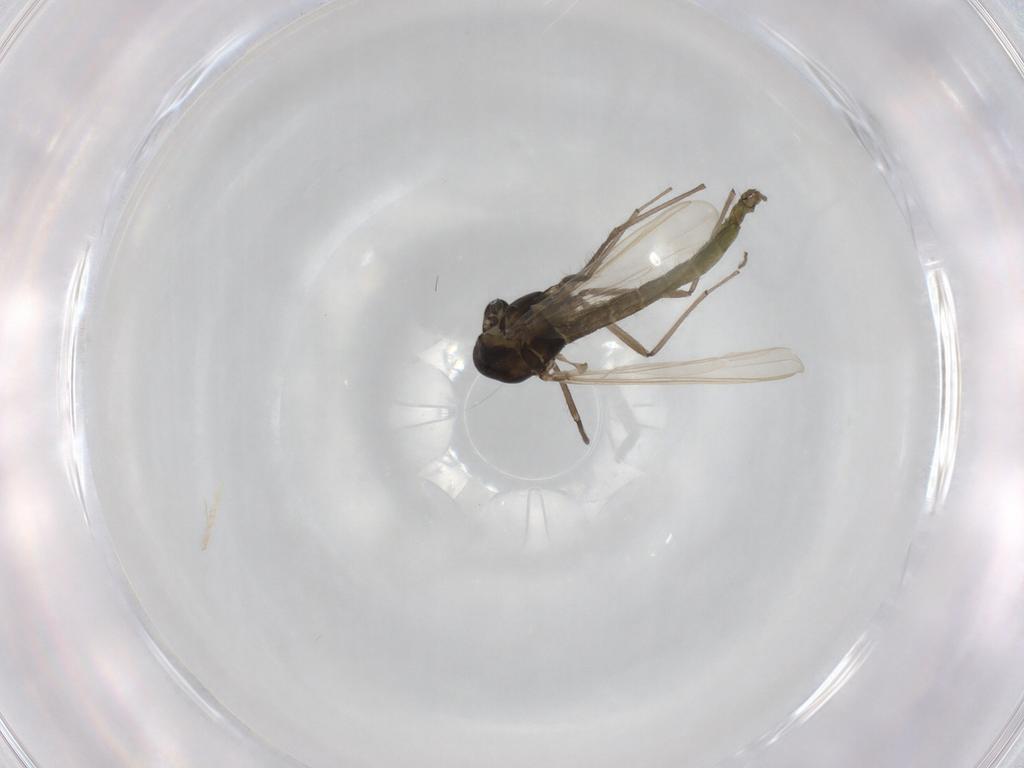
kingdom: Animalia
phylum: Arthropoda
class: Insecta
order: Diptera
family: Chironomidae
